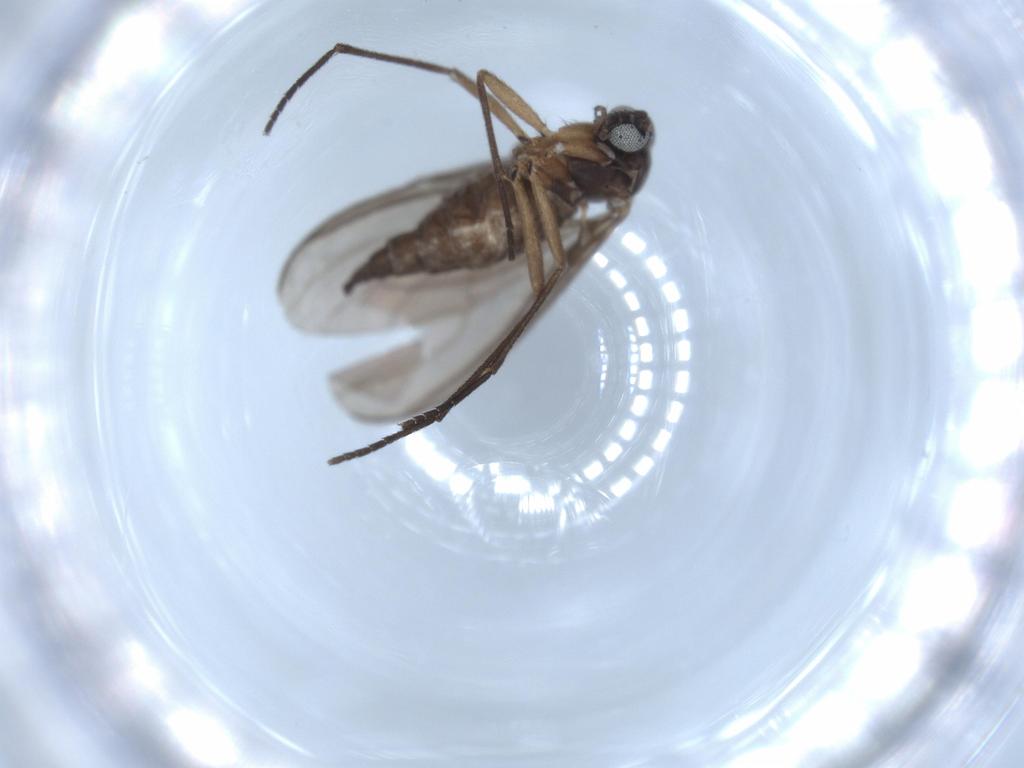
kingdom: Animalia
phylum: Arthropoda
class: Insecta
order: Diptera
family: Sciaridae
